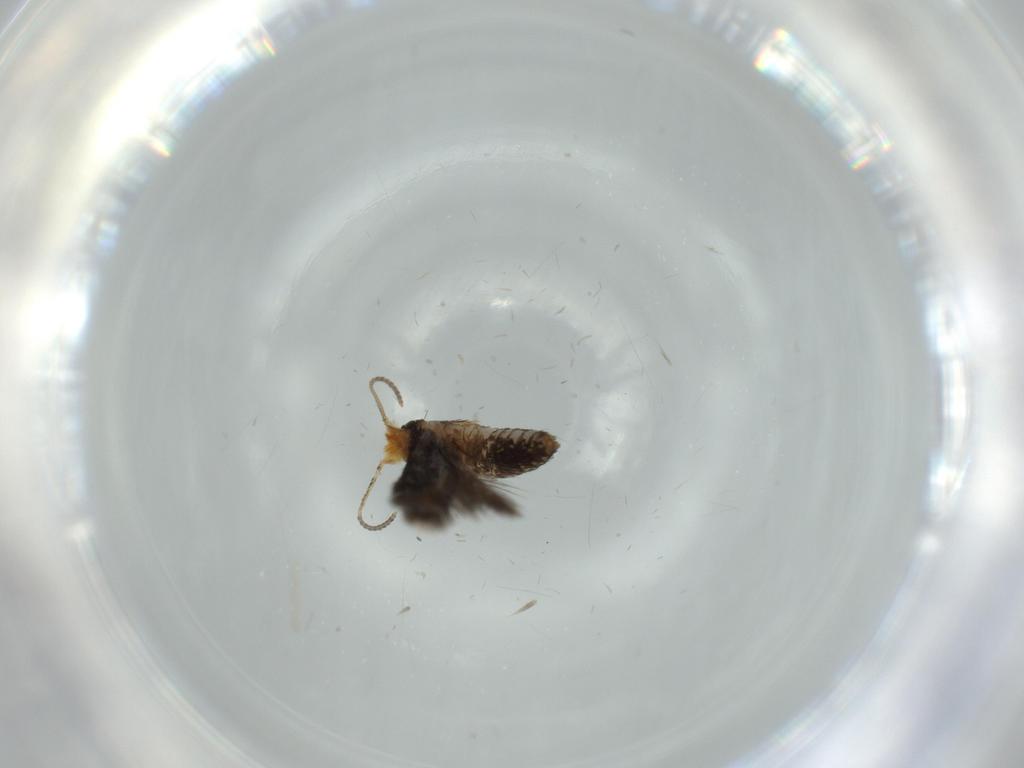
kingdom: Animalia
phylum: Arthropoda
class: Insecta
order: Lepidoptera
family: Nepticulidae
